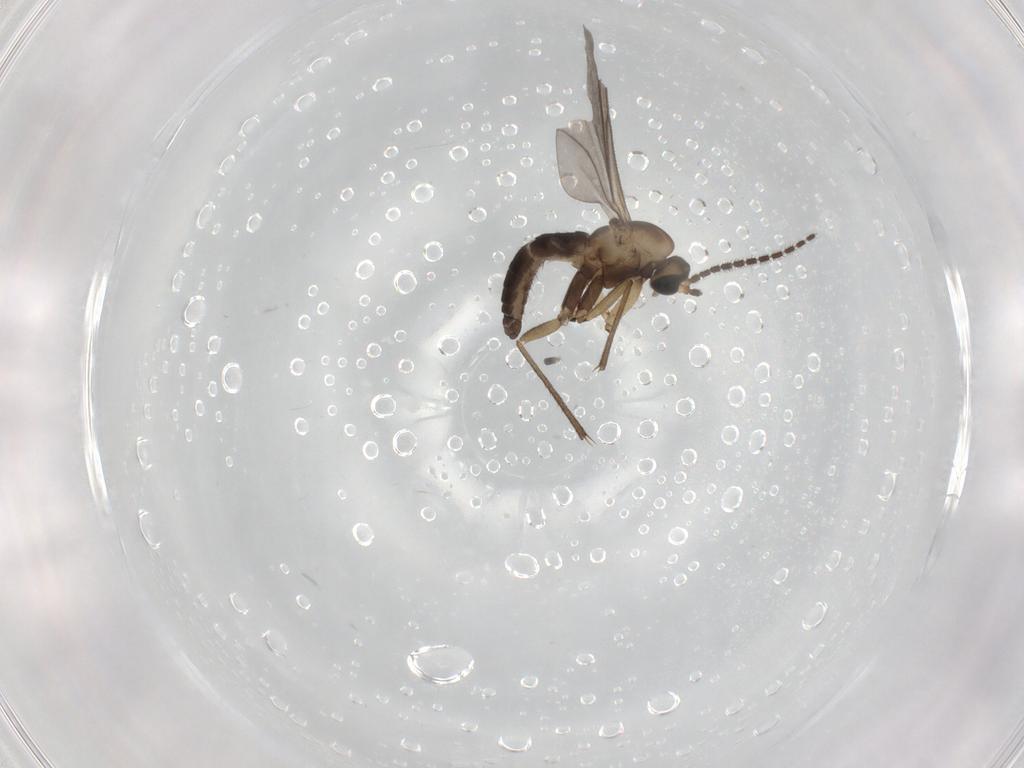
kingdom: Animalia
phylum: Arthropoda
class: Insecta
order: Diptera
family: Sciaridae
